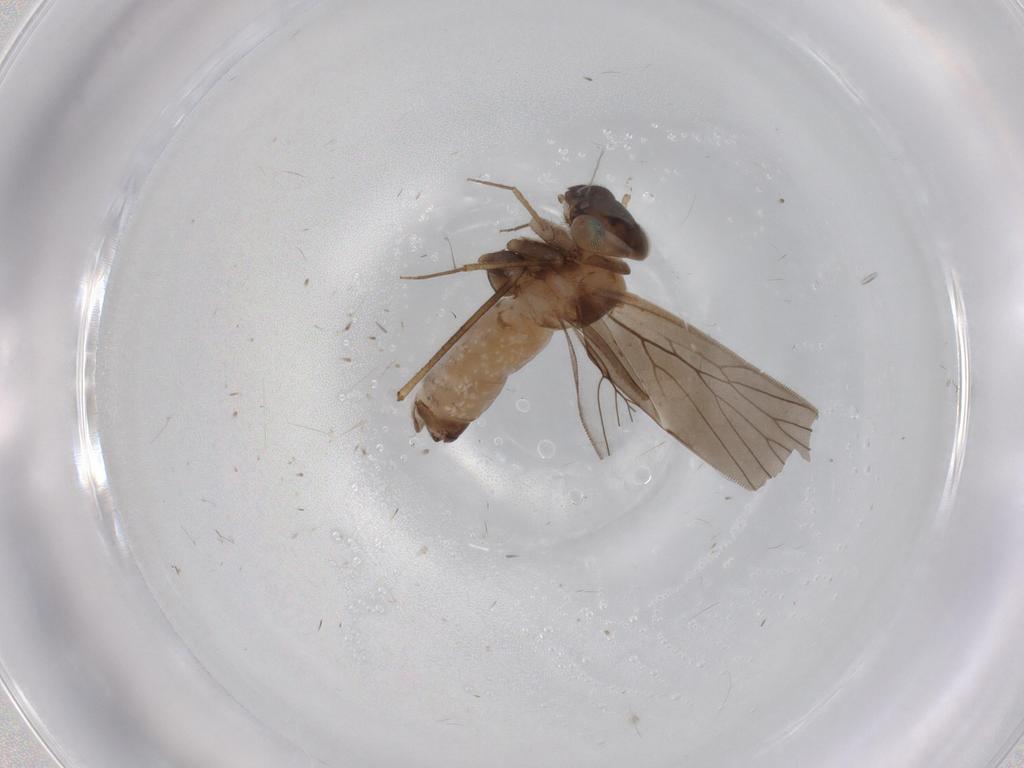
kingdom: Animalia
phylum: Arthropoda
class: Insecta
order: Psocodea
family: Lepidopsocidae
